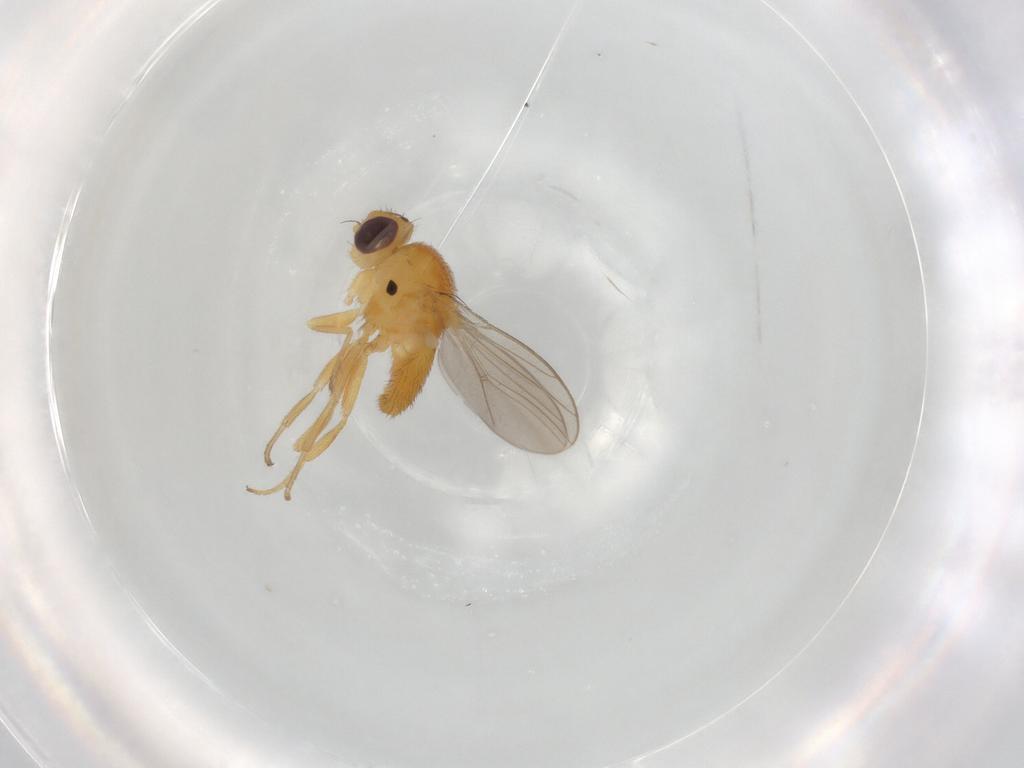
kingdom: Animalia
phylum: Arthropoda
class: Insecta
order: Diptera
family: Chloropidae
